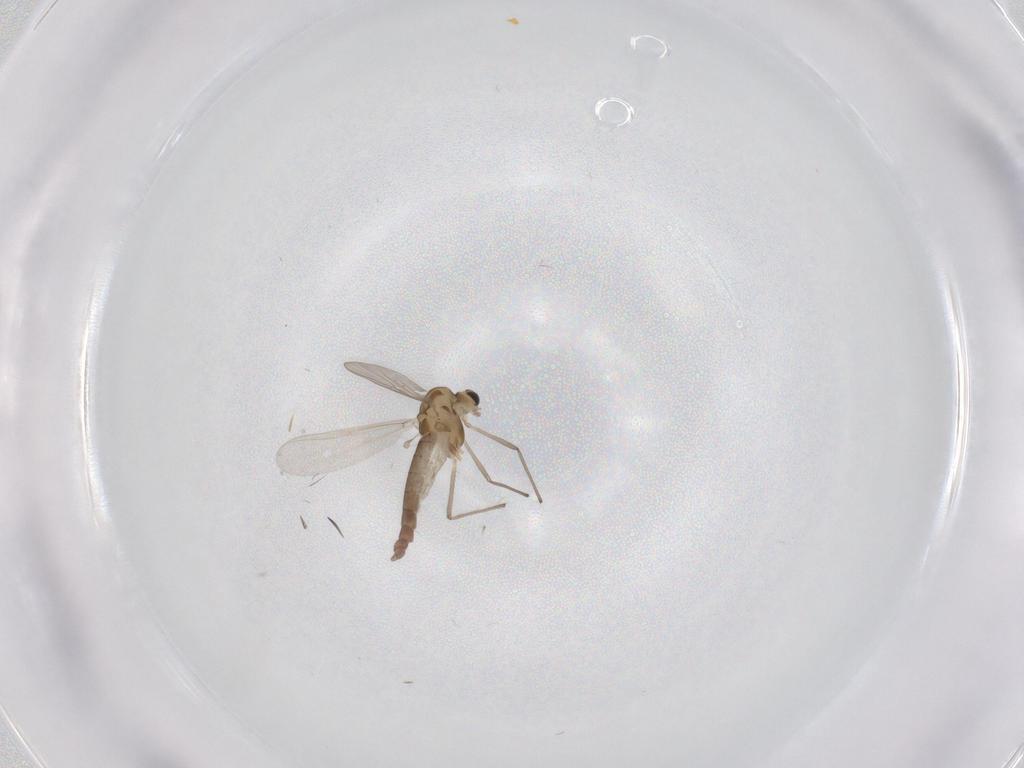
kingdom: Animalia
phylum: Arthropoda
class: Insecta
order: Diptera
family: Chironomidae
